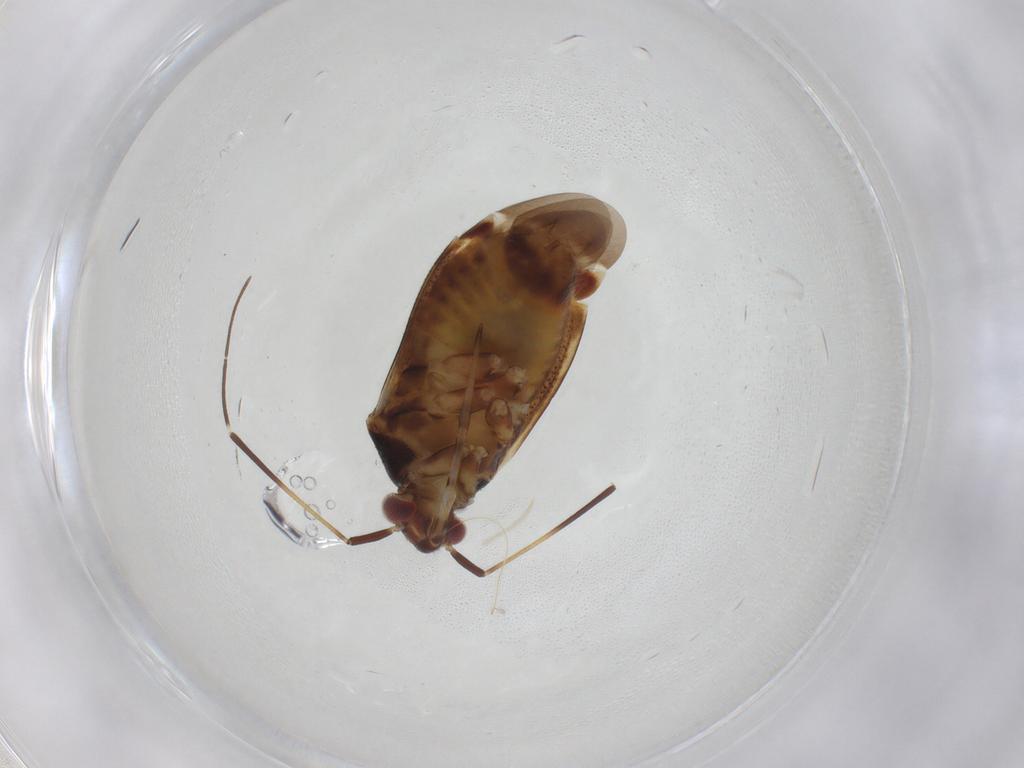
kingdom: Animalia
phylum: Arthropoda
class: Insecta
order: Hemiptera
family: Miridae
